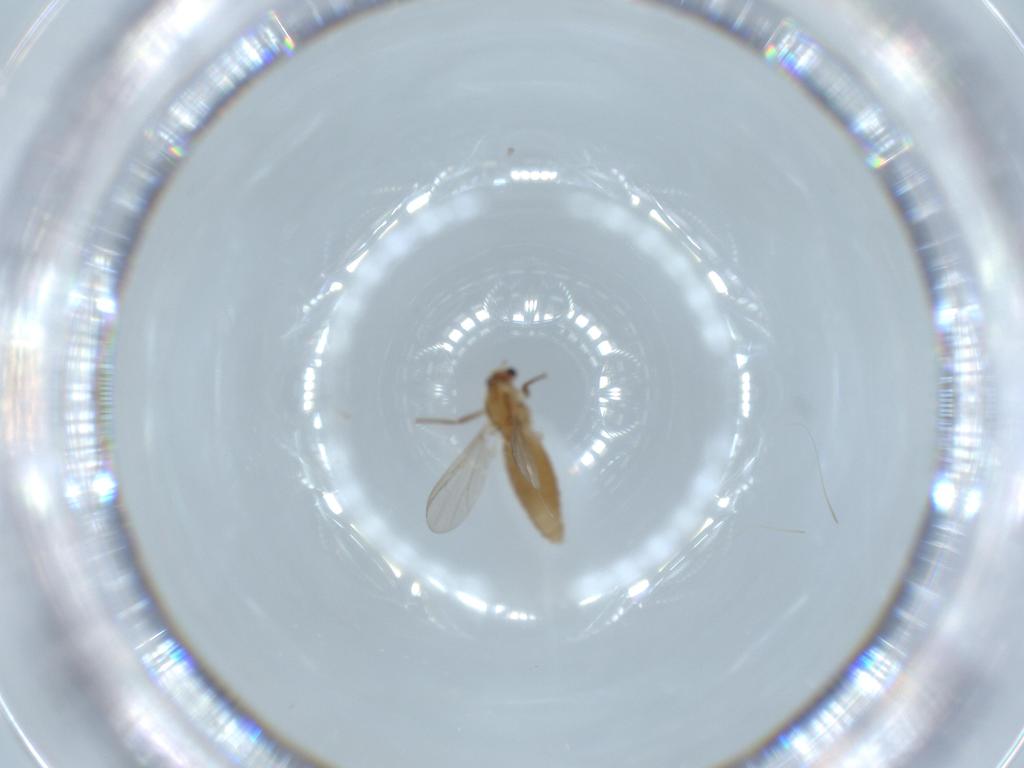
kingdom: Animalia
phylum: Arthropoda
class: Insecta
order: Diptera
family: Chironomidae
